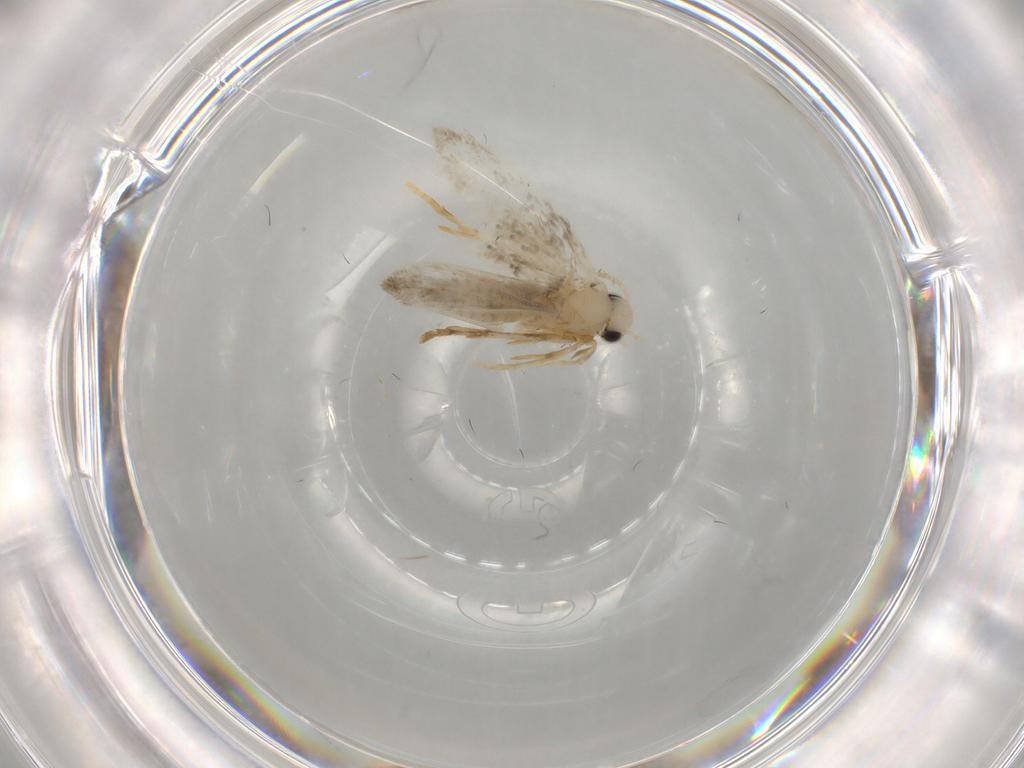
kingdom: Animalia
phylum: Arthropoda
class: Insecta
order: Lepidoptera
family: Psychidae
